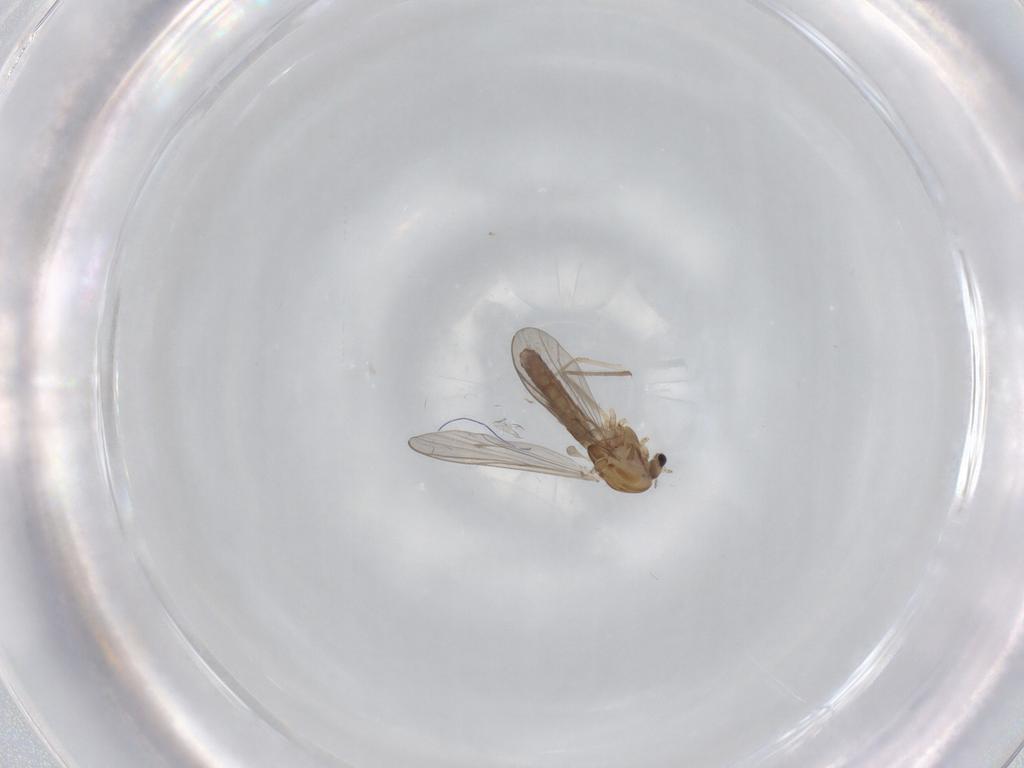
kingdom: Animalia
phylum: Arthropoda
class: Insecta
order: Diptera
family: Chironomidae
